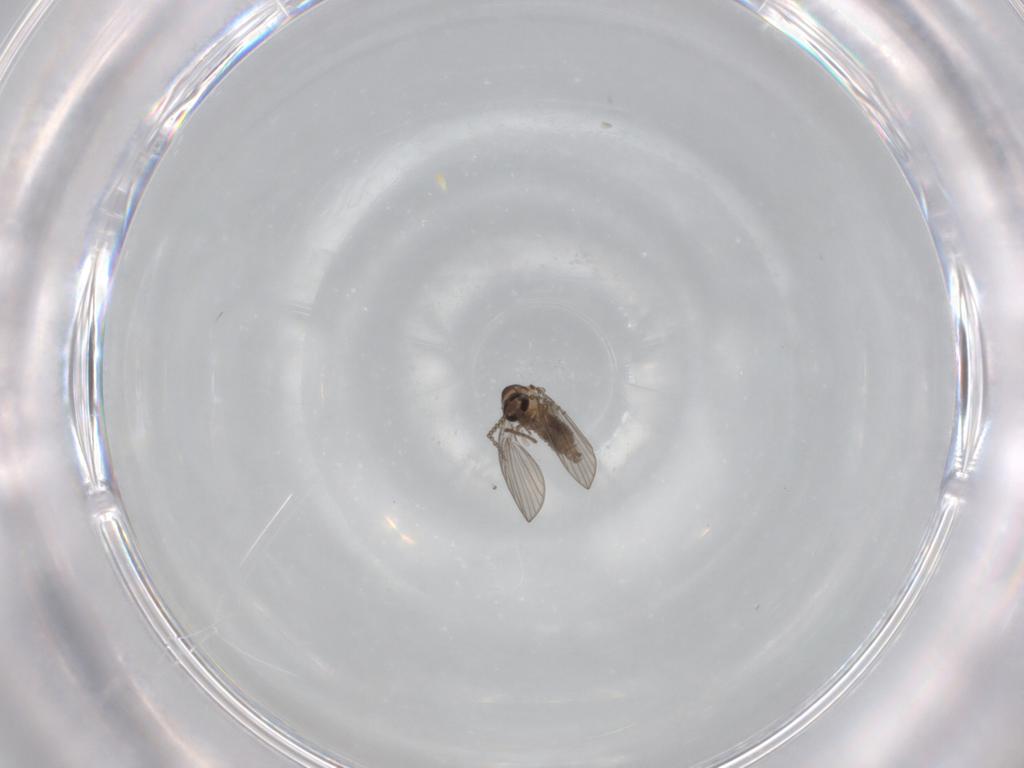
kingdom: Animalia
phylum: Arthropoda
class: Insecta
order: Diptera
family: Psychodidae
